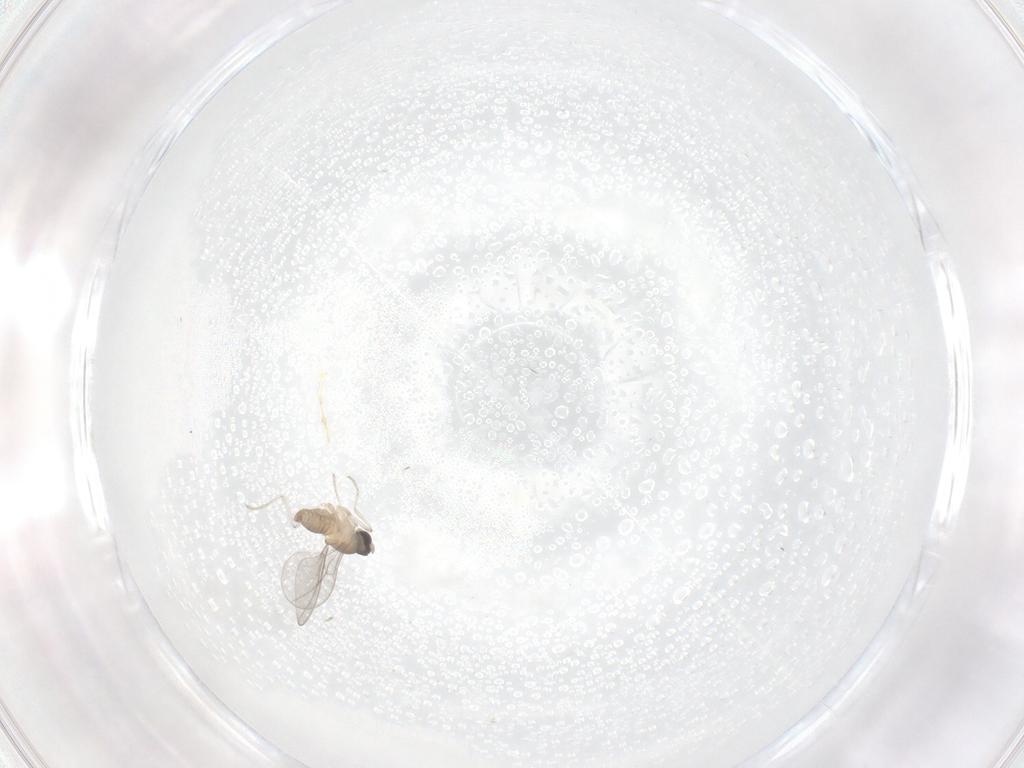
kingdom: Animalia
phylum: Arthropoda
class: Insecta
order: Diptera
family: Cecidomyiidae
